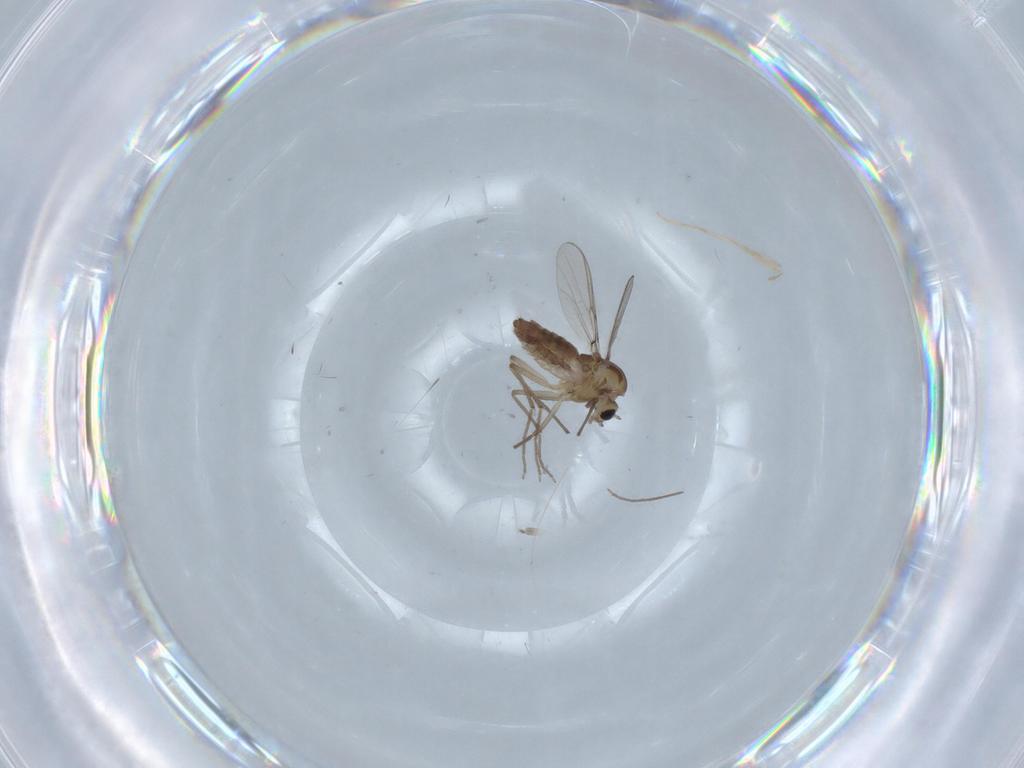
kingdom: Animalia
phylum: Arthropoda
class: Insecta
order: Diptera
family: Chironomidae
